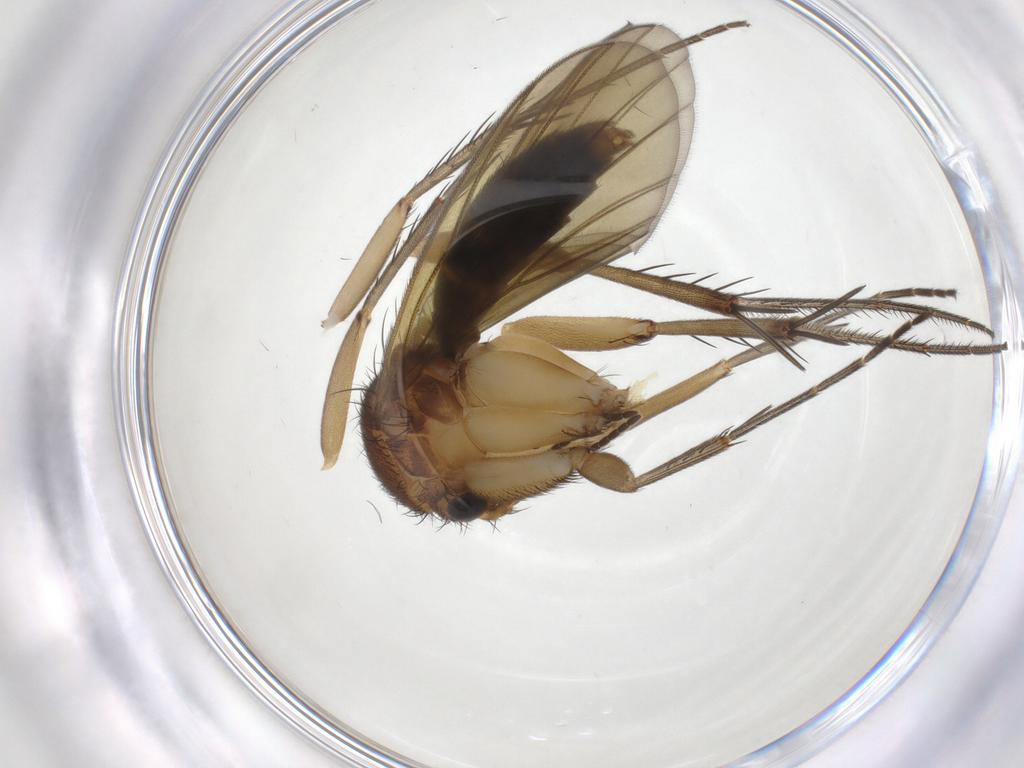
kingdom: Animalia
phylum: Arthropoda
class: Insecta
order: Diptera
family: Mycetophilidae
